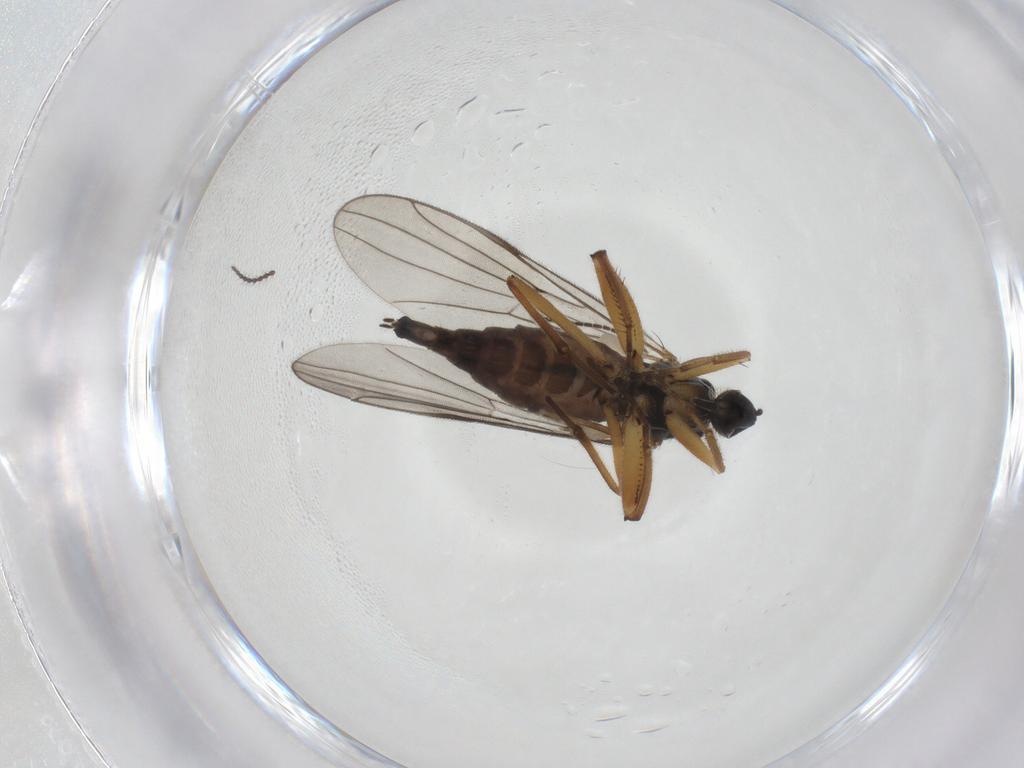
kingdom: Animalia
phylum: Arthropoda
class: Insecta
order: Diptera
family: Hybotidae
